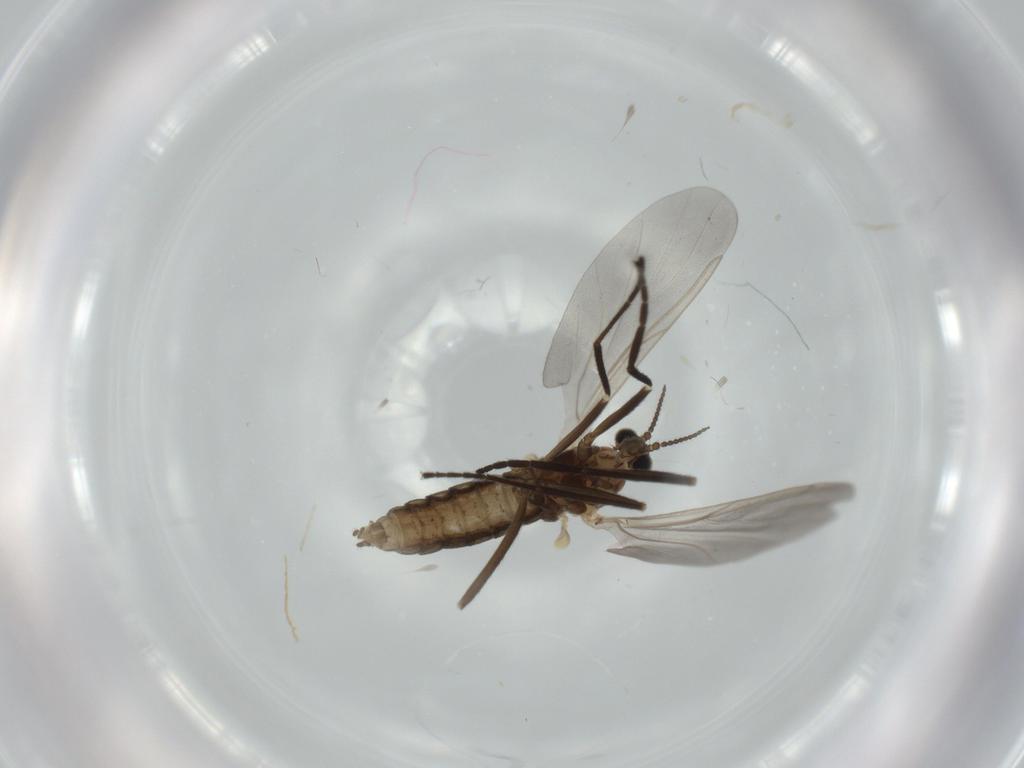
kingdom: Animalia
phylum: Arthropoda
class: Insecta
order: Diptera
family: Cecidomyiidae
